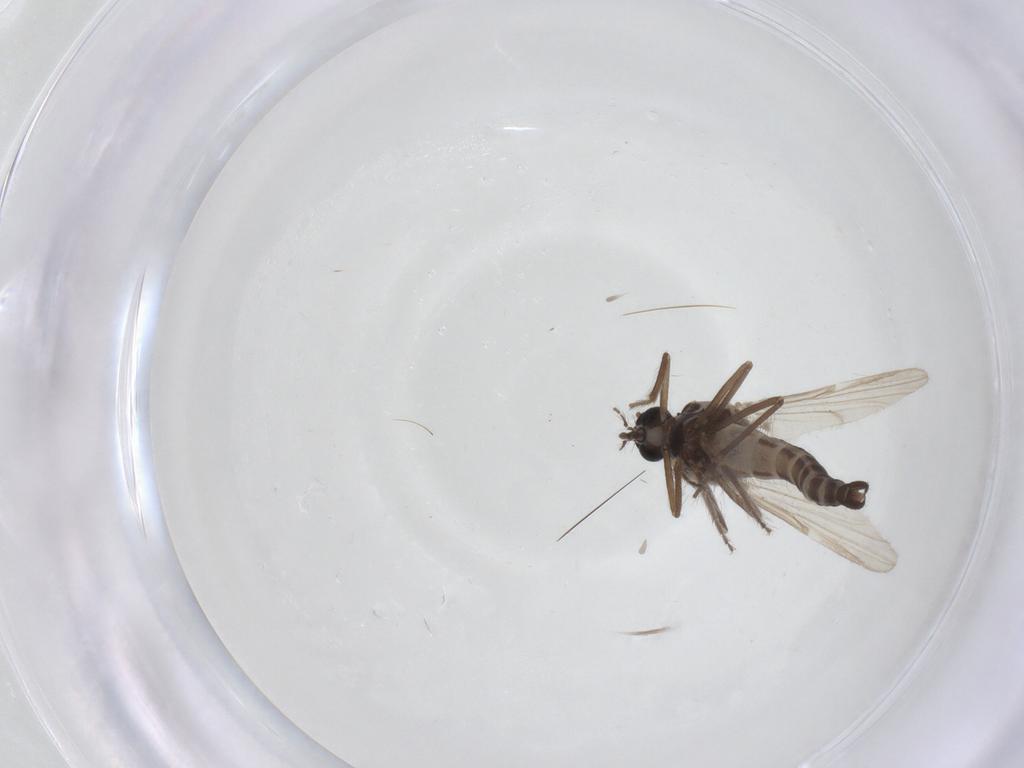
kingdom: Animalia
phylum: Arthropoda
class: Insecta
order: Diptera
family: Ceratopogonidae
